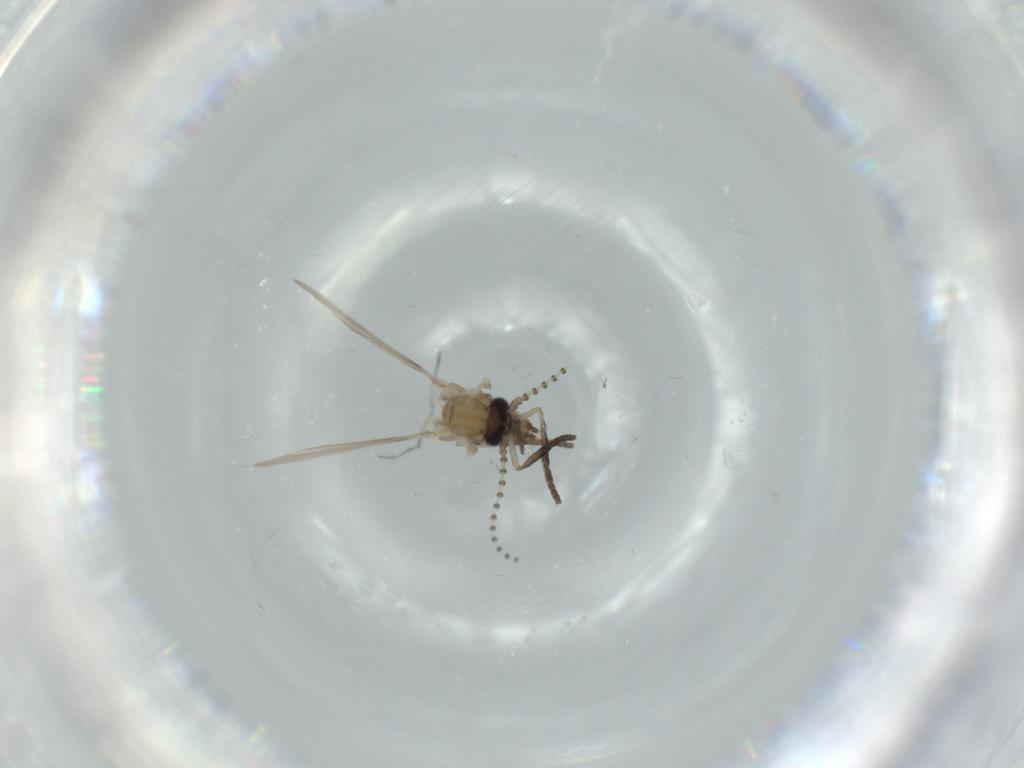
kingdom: Animalia
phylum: Arthropoda
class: Insecta
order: Diptera
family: Psychodidae
